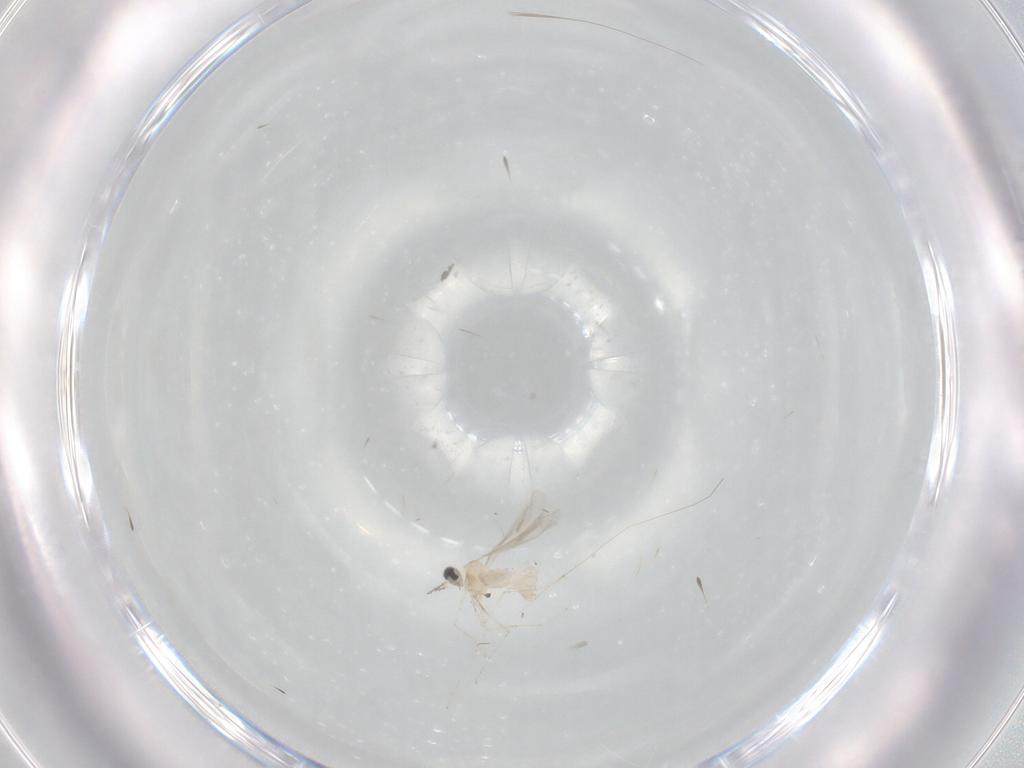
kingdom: Animalia
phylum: Arthropoda
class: Insecta
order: Diptera
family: Cecidomyiidae
